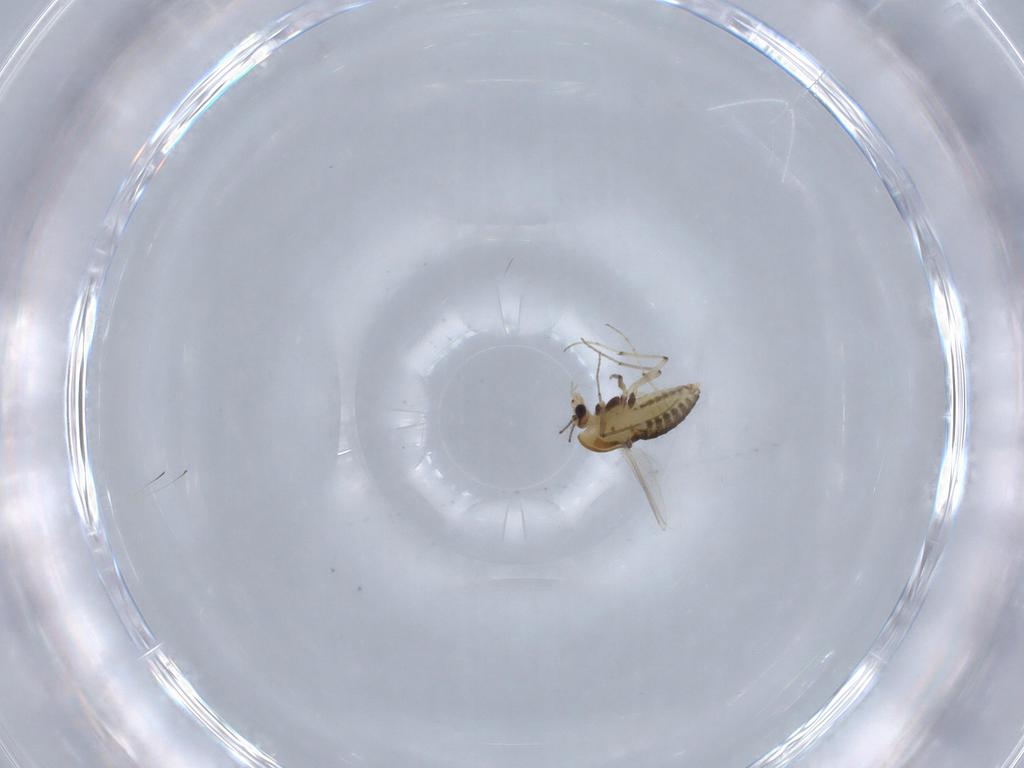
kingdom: Animalia
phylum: Arthropoda
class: Insecta
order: Diptera
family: Chironomidae
